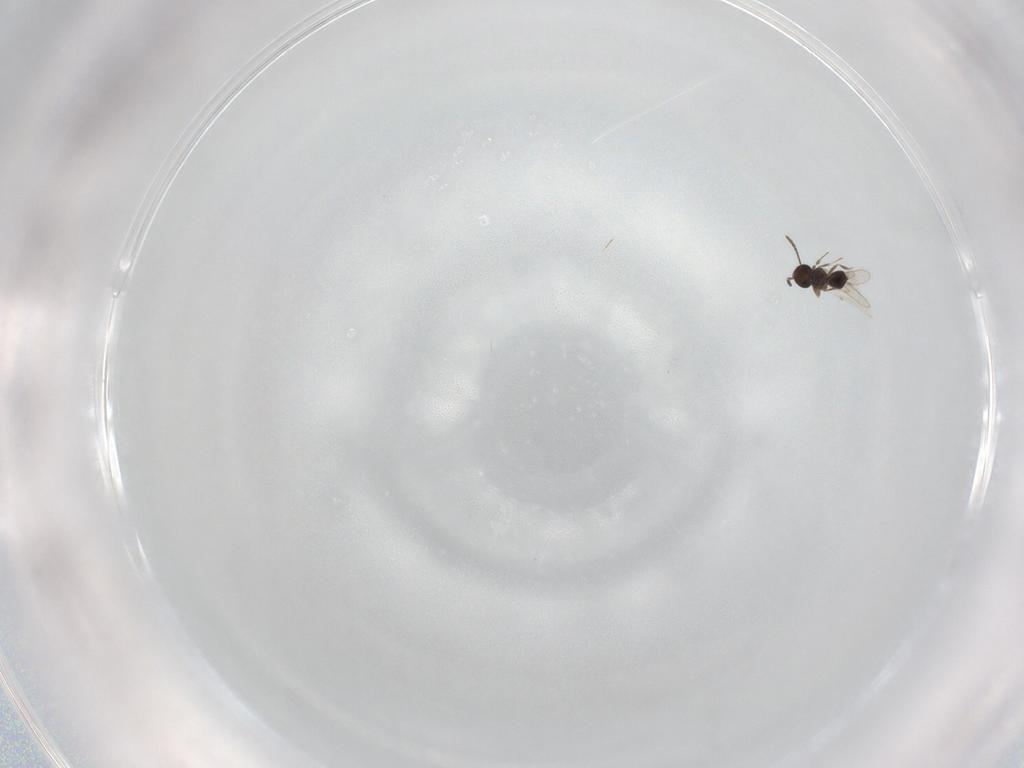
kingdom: Animalia
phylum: Arthropoda
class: Insecta
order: Hymenoptera
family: Scelionidae
